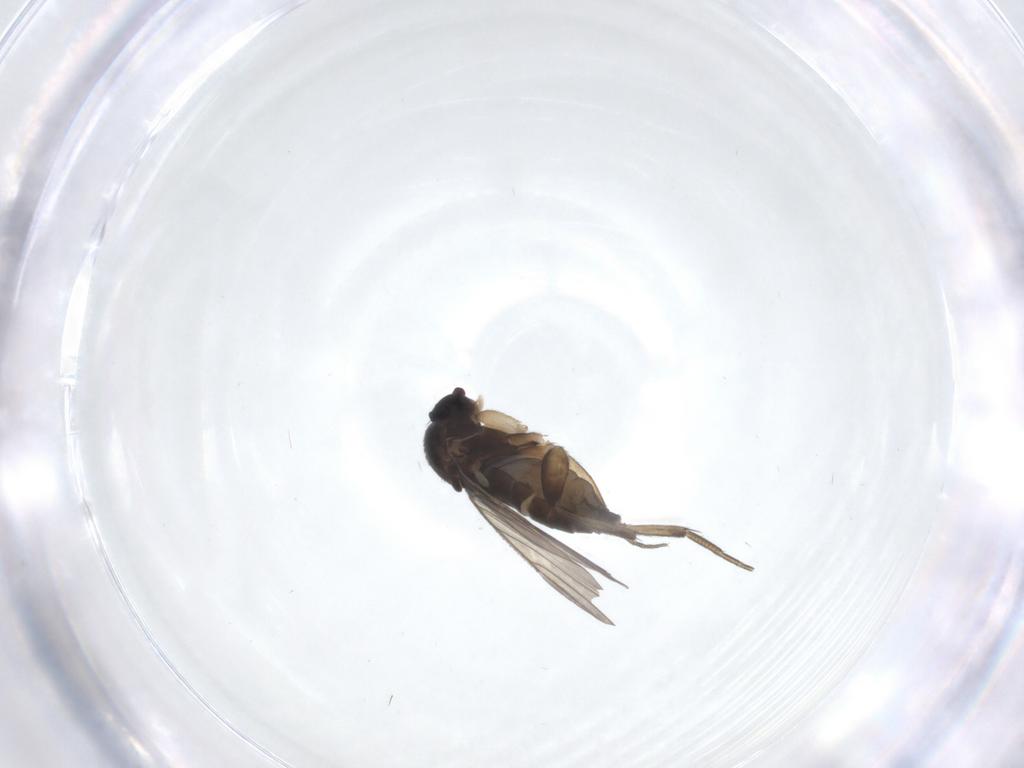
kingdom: Animalia
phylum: Arthropoda
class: Insecta
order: Diptera
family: Phoridae
